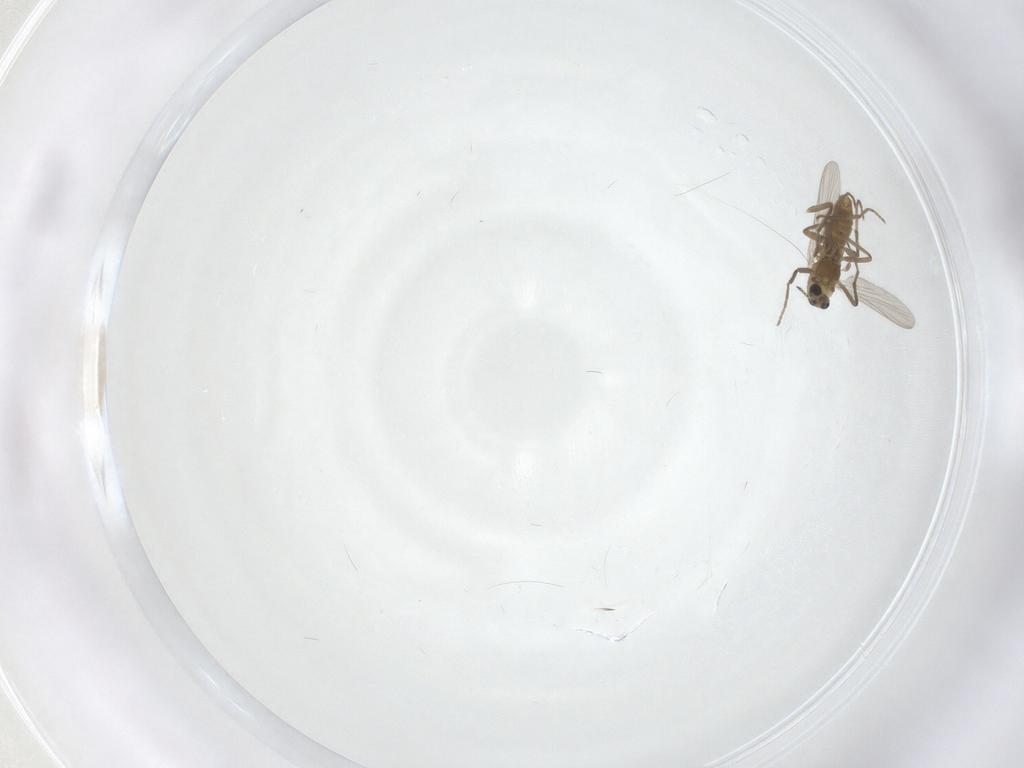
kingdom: Animalia
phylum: Arthropoda
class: Insecta
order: Diptera
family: Chironomidae
